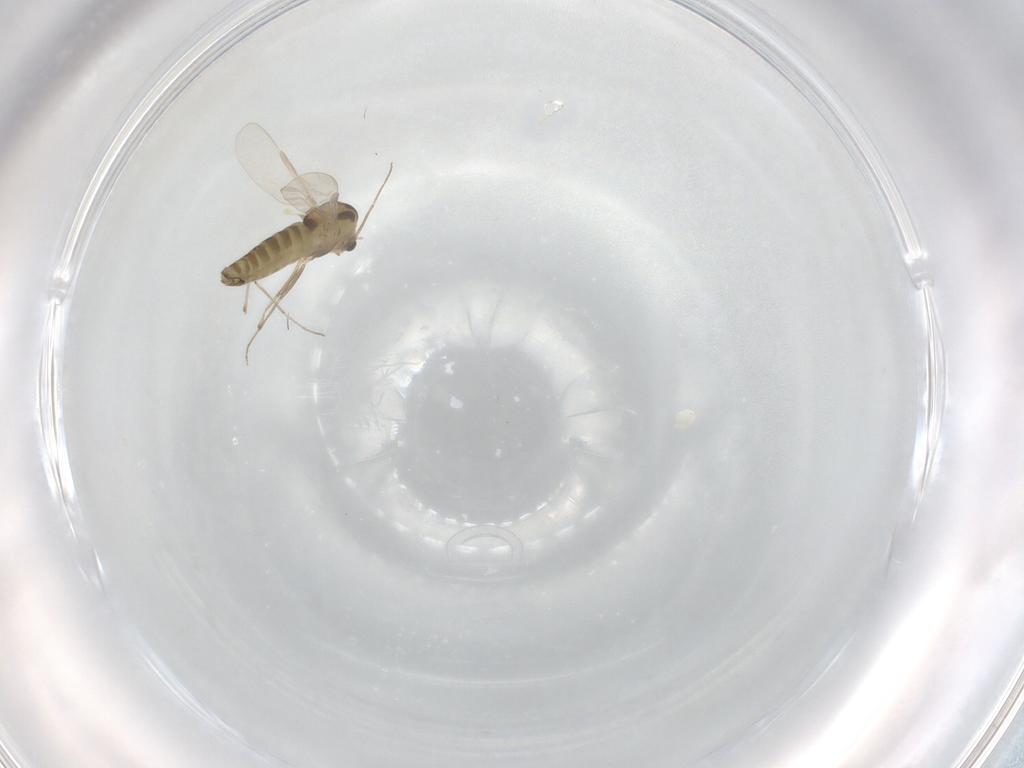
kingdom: Animalia
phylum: Arthropoda
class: Insecta
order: Diptera
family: Chironomidae
